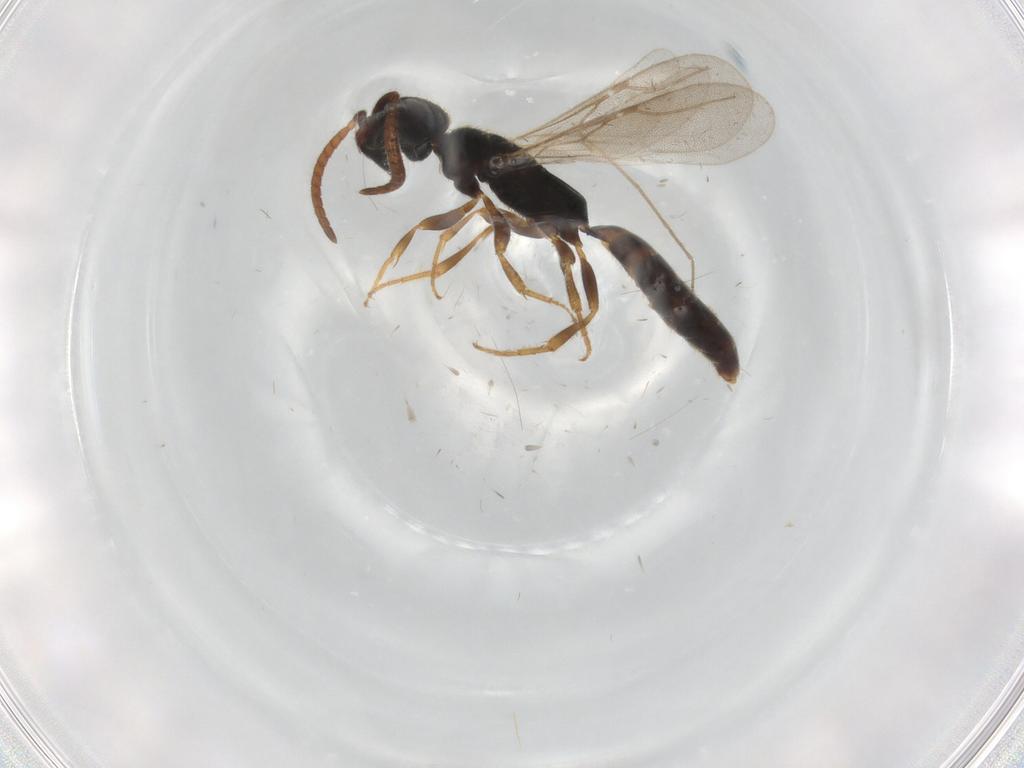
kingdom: Animalia
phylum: Arthropoda
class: Insecta
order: Hymenoptera
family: Bethylidae
